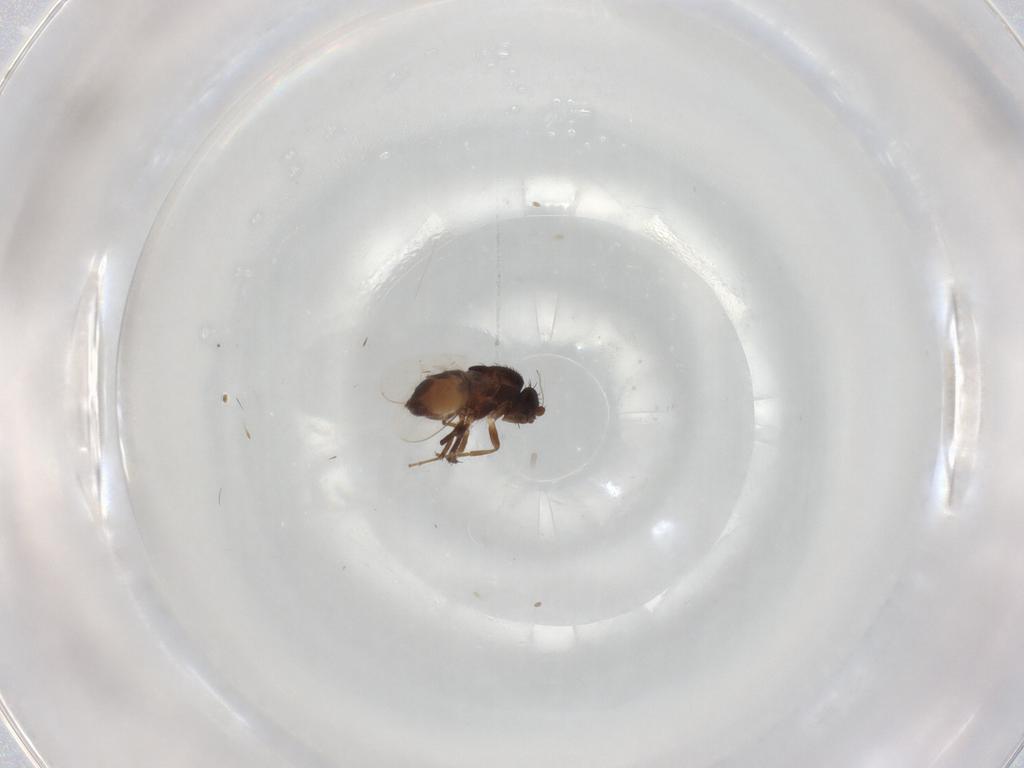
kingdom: Animalia
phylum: Arthropoda
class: Insecta
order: Diptera
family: Sphaeroceridae
